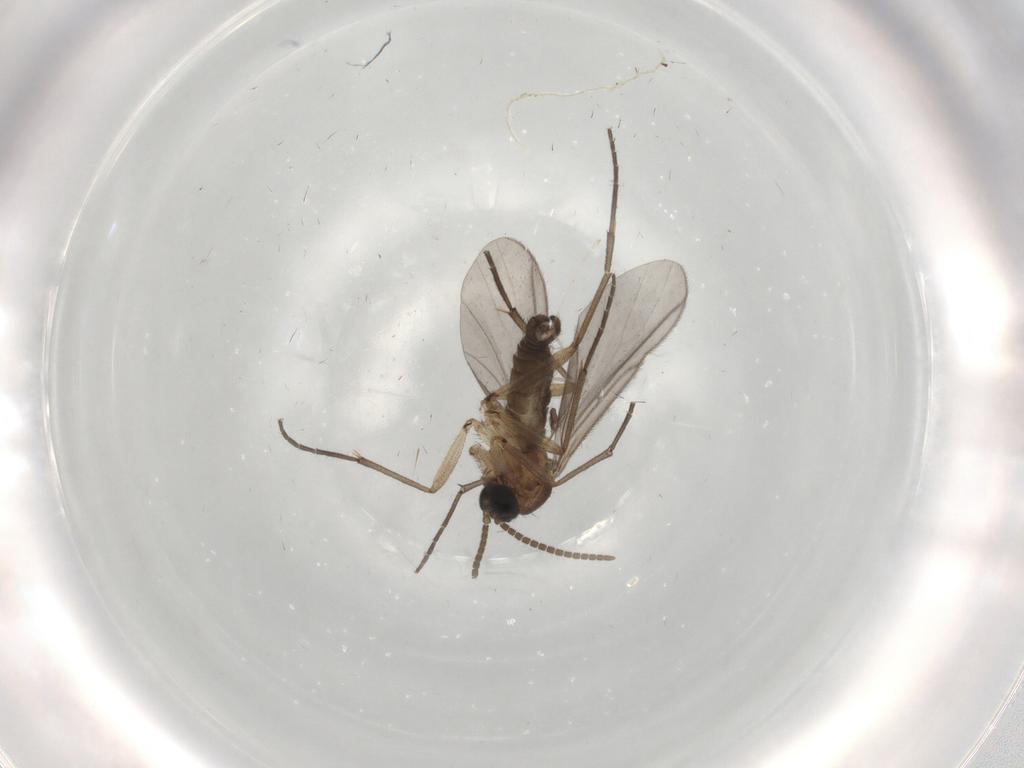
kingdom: Animalia
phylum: Arthropoda
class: Insecta
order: Diptera
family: Cecidomyiidae
